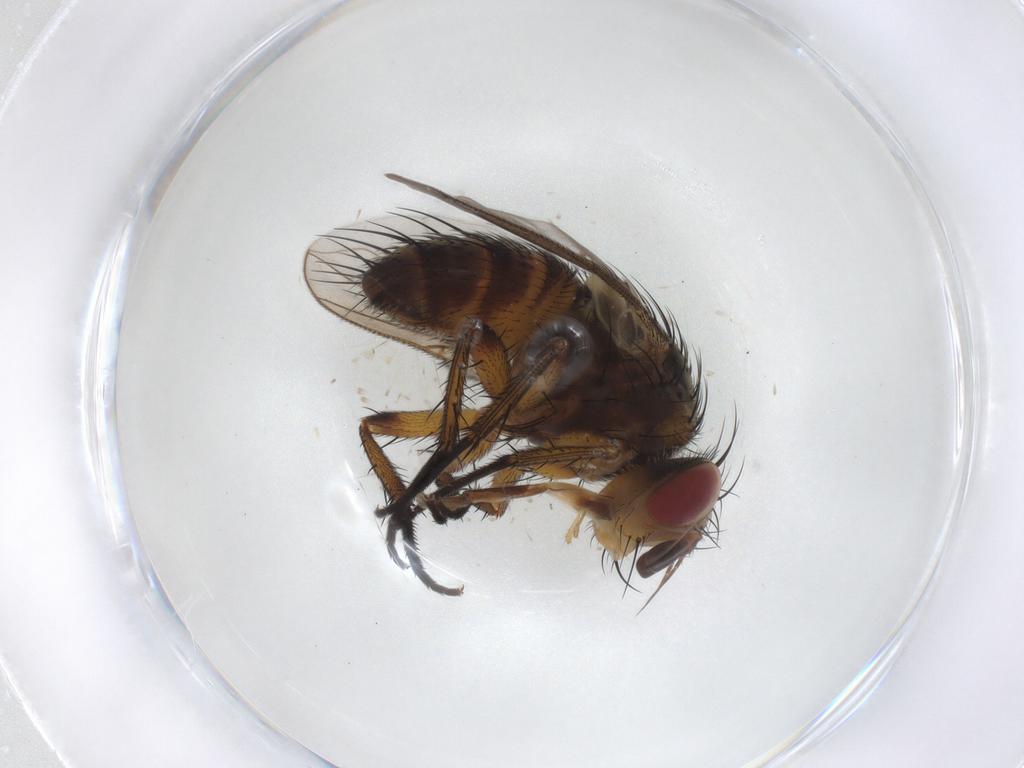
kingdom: Animalia
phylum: Arthropoda
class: Insecta
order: Diptera
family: Tachinidae
